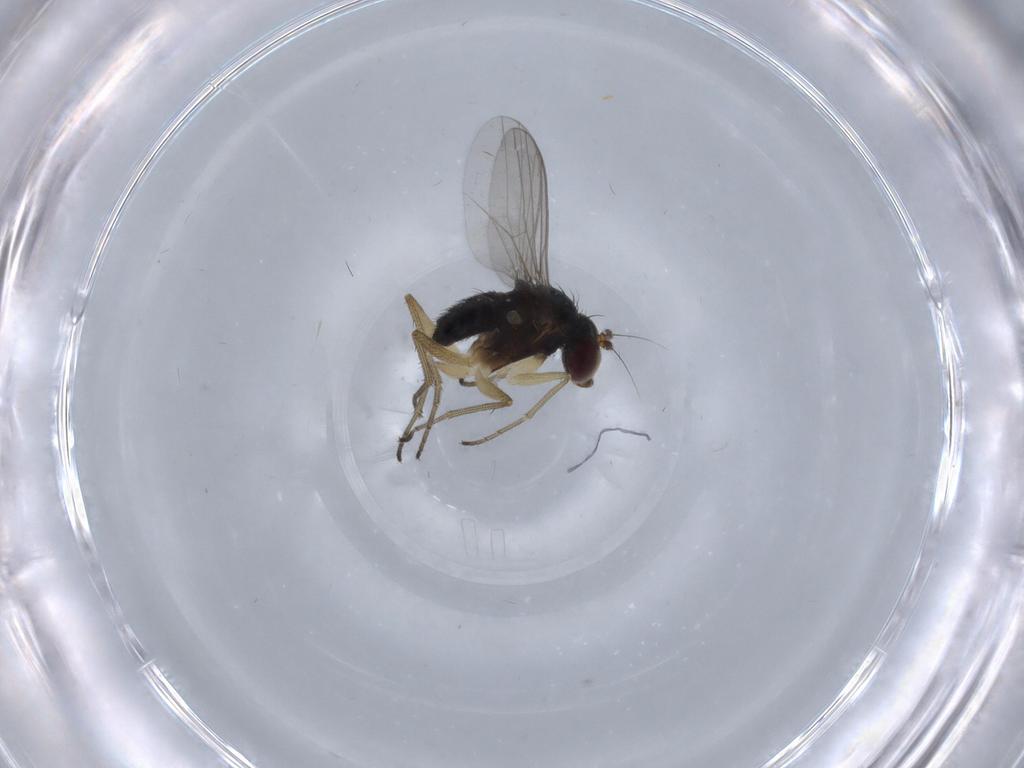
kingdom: Animalia
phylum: Arthropoda
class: Insecta
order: Diptera
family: Dolichopodidae
